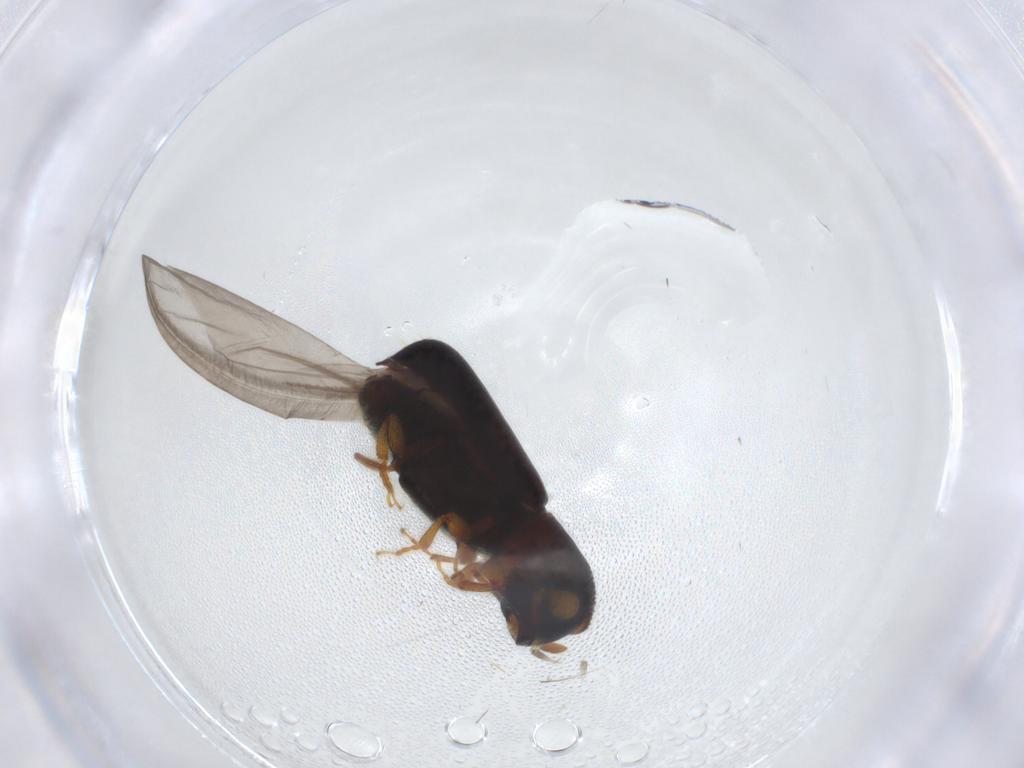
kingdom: Animalia
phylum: Arthropoda
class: Insecta
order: Coleoptera
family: Curculionidae
